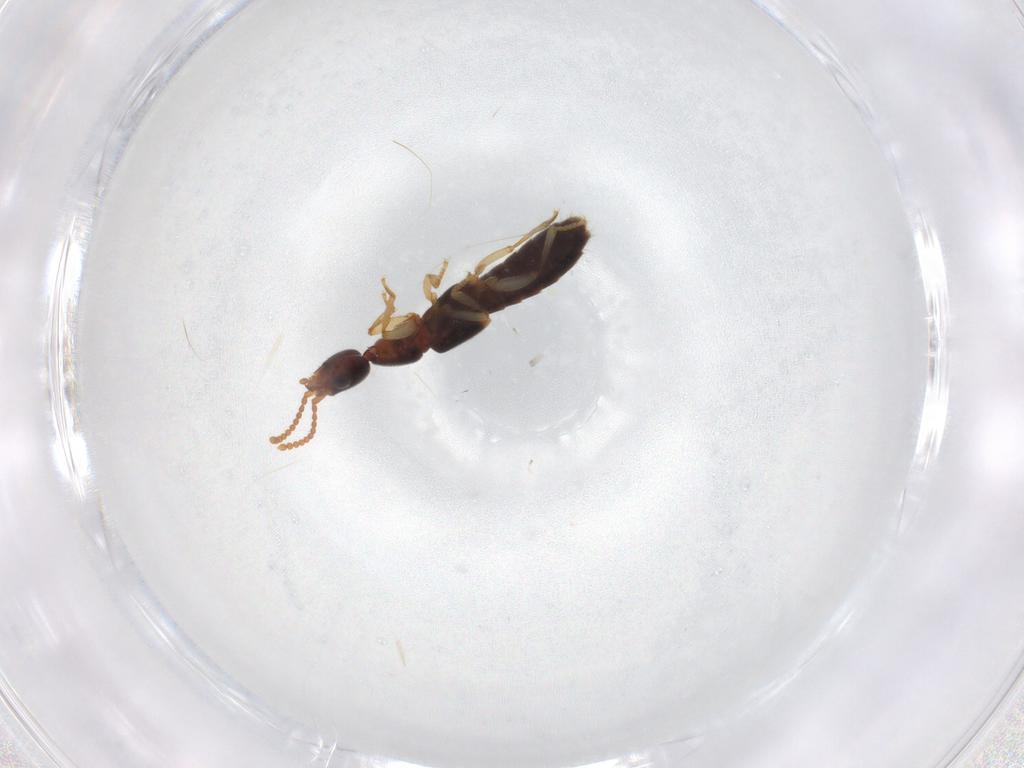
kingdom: Animalia
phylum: Arthropoda
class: Insecta
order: Coleoptera
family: Staphylinidae
